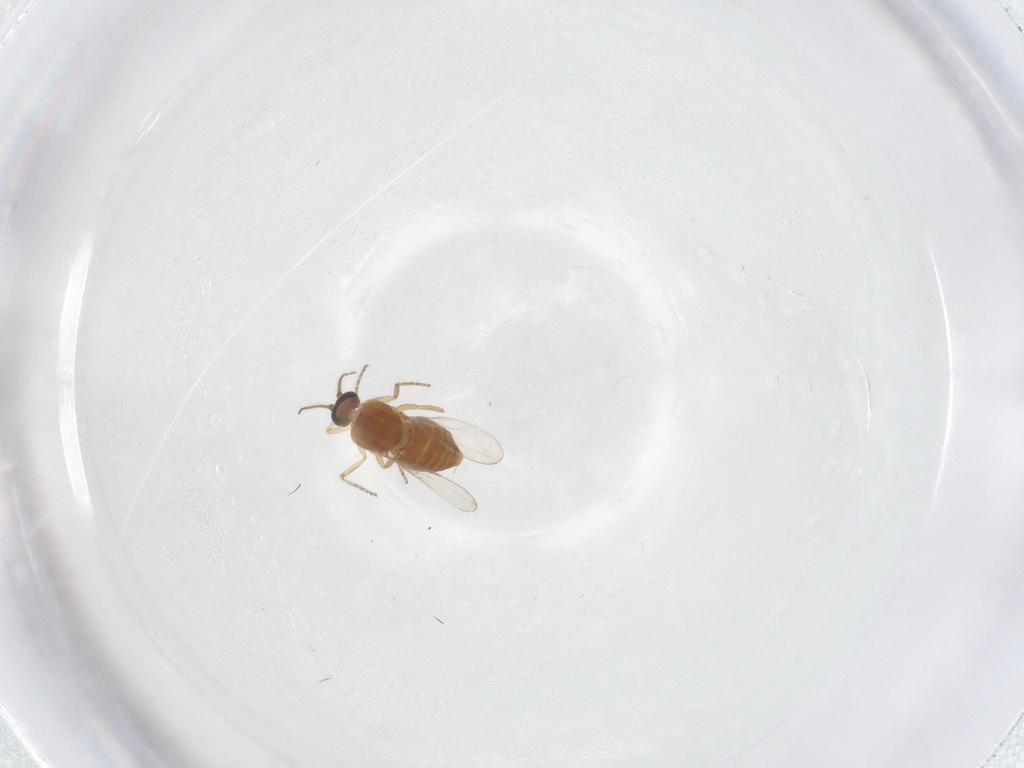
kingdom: Animalia
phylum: Arthropoda
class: Insecta
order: Diptera
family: Ceratopogonidae
